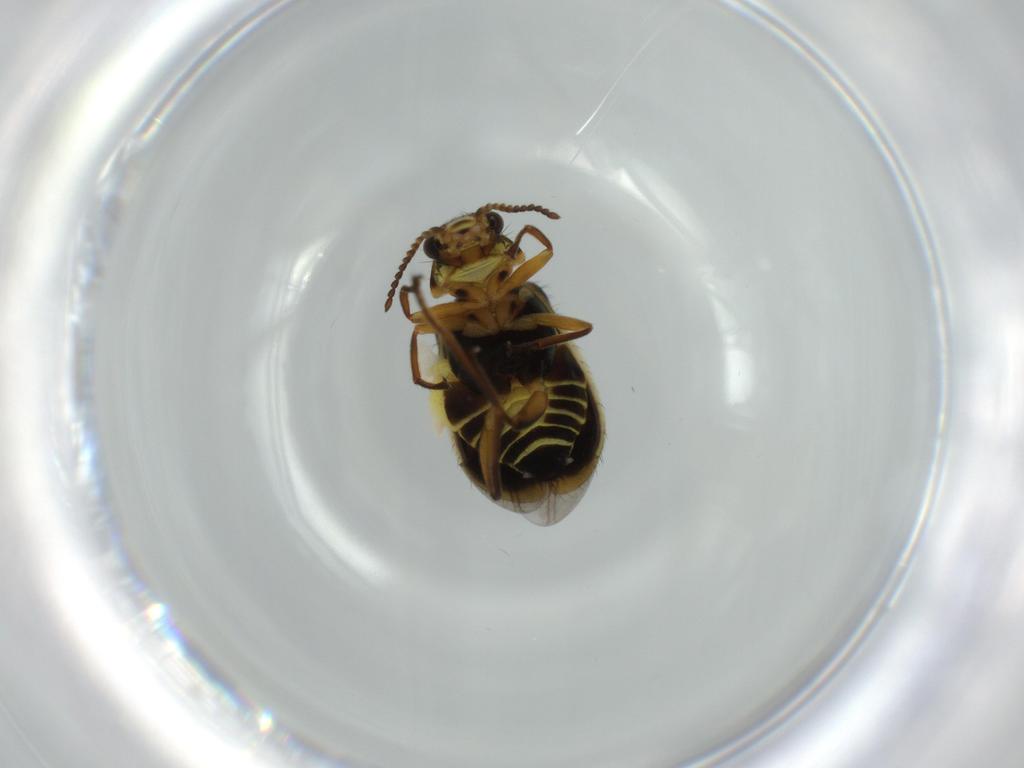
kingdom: Animalia
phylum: Arthropoda
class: Insecta
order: Coleoptera
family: Melyridae
